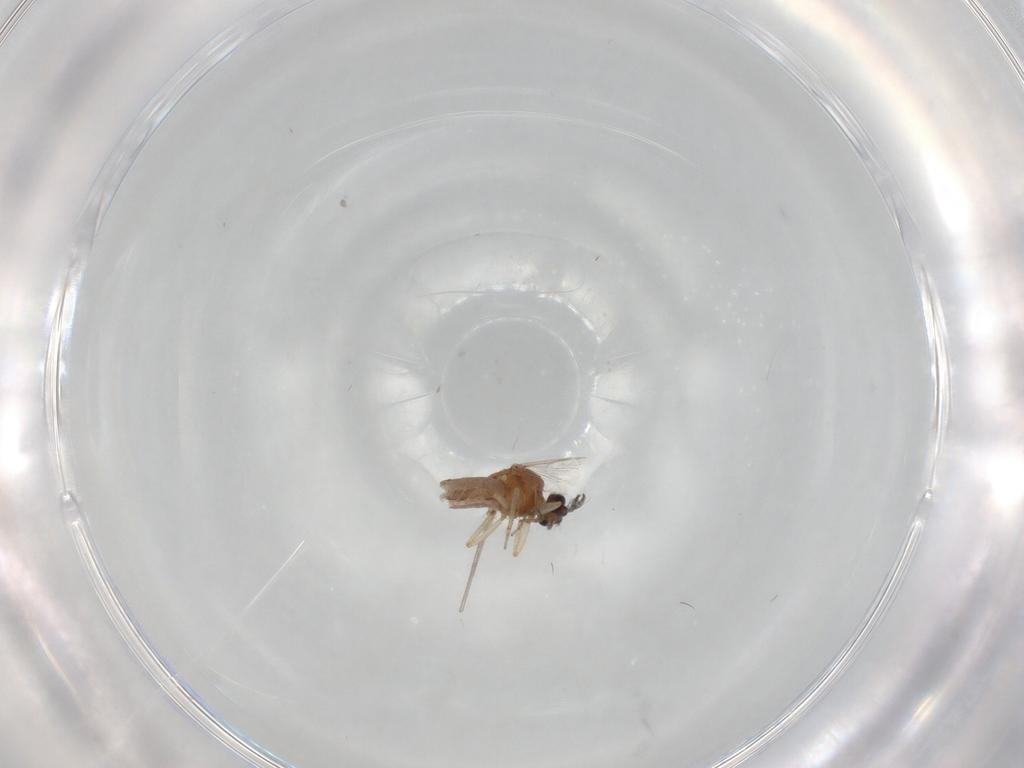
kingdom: Animalia
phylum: Arthropoda
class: Insecta
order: Diptera
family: Ceratopogonidae
